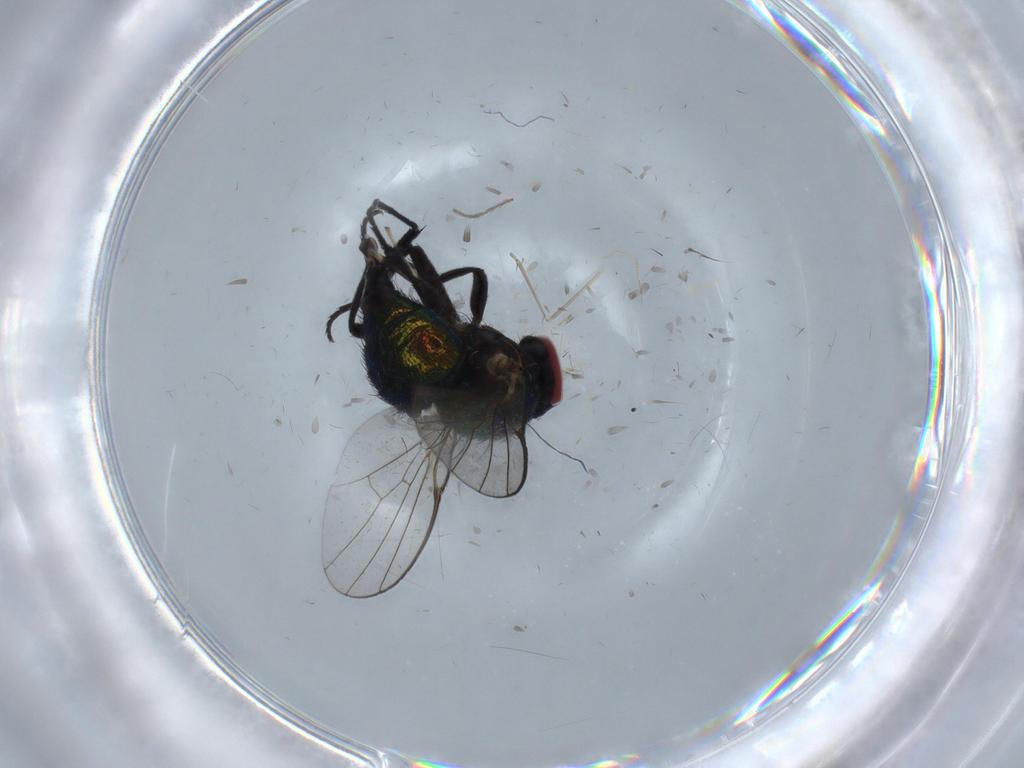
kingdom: Animalia
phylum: Arthropoda
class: Insecta
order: Diptera
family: Agromyzidae
